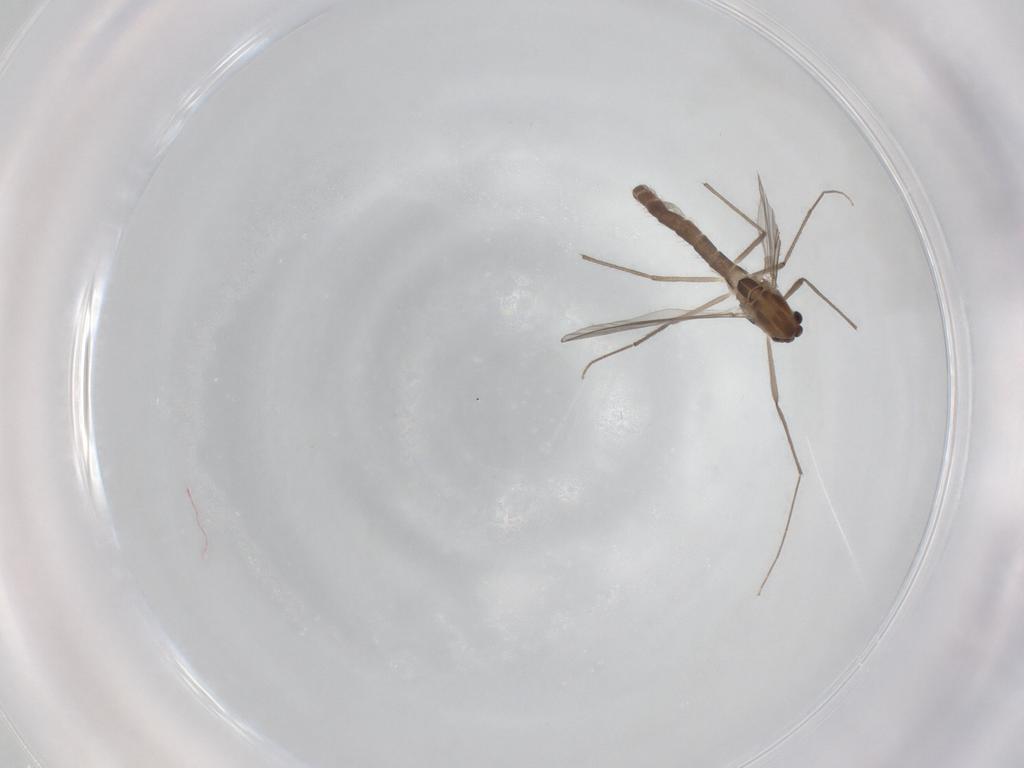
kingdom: Animalia
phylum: Arthropoda
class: Insecta
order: Diptera
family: Chironomidae
